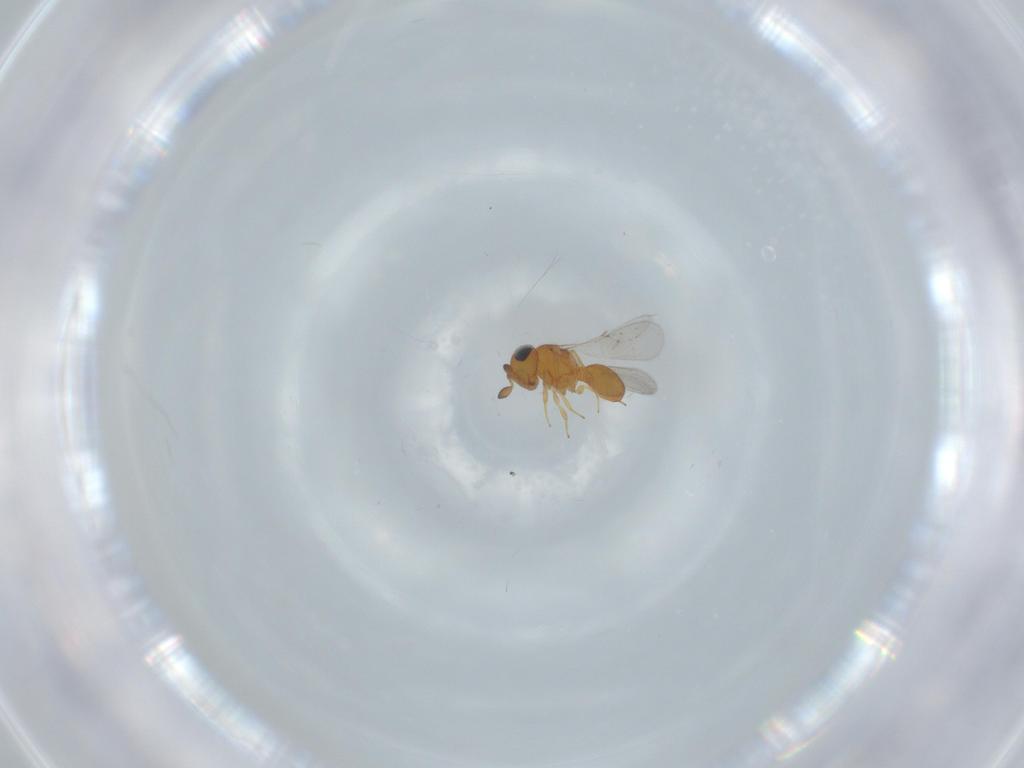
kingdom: Animalia
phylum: Arthropoda
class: Insecta
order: Hymenoptera
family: Scelionidae
